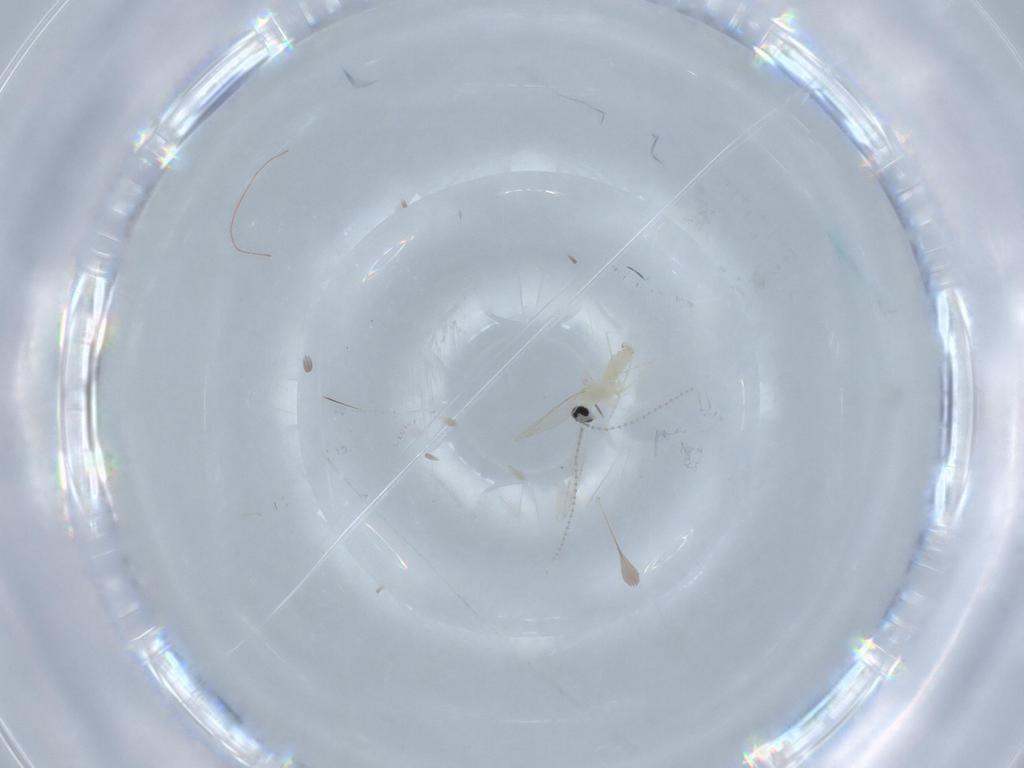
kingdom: Animalia
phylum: Arthropoda
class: Insecta
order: Diptera
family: Cecidomyiidae
